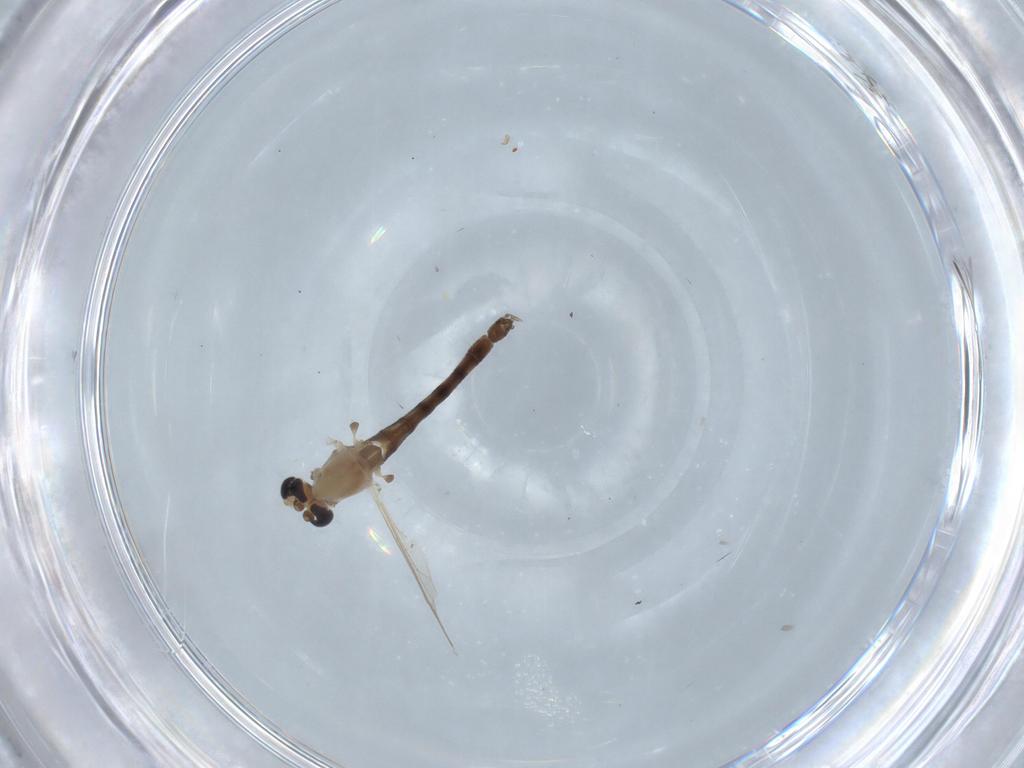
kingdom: Animalia
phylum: Arthropoda
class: Insecta
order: Diptera
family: Chironomidae
